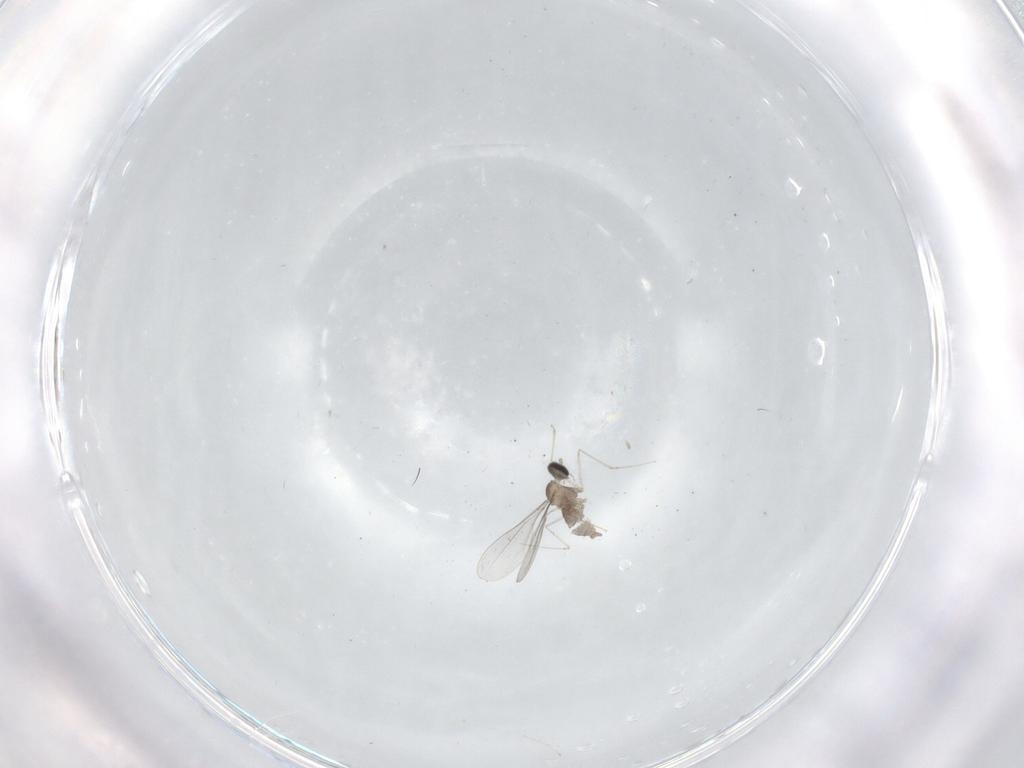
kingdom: Animalia
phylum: Arthropoda
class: Insecta
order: Diptera
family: Cecidomyiidae
